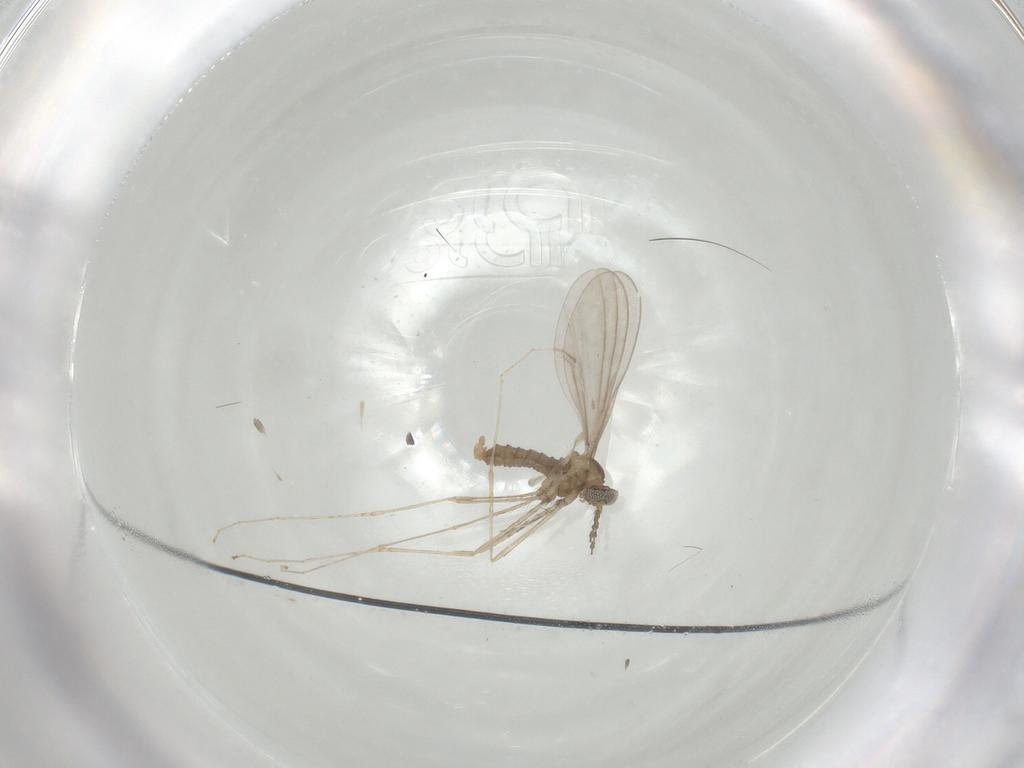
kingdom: Animalia
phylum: Arthropoda
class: Insecta
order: Diptera
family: Cecidomyiidae
